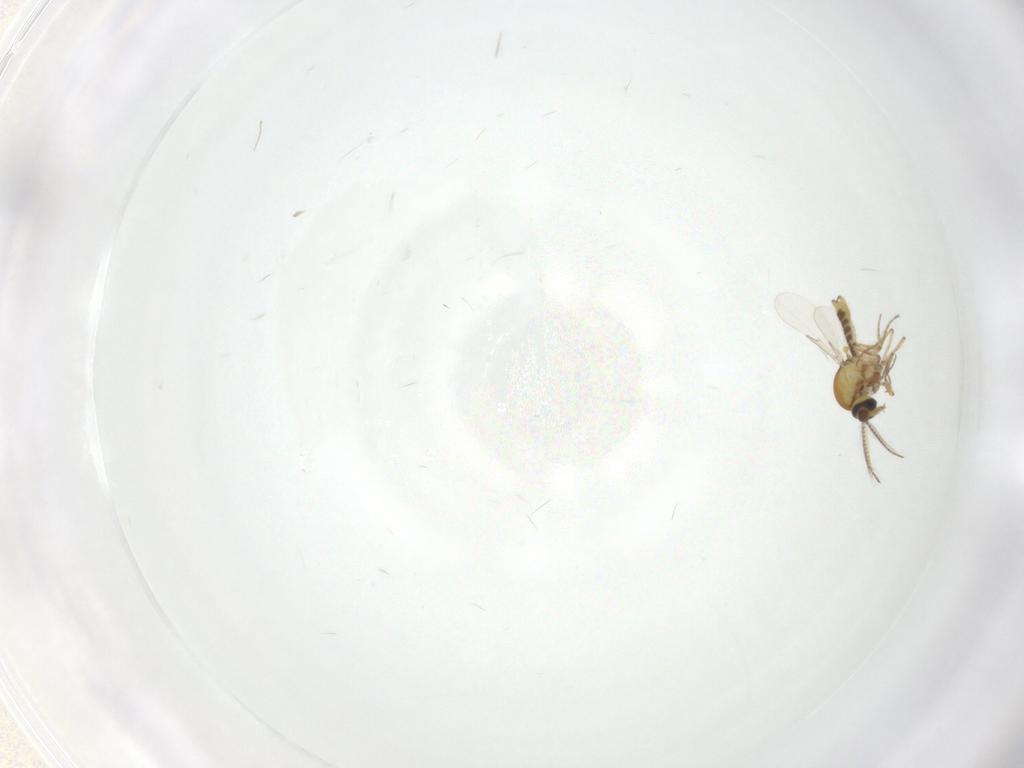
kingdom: Animalia
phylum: Arthropoda
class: Insecta
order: Diptera
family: Ceratopogonidae
